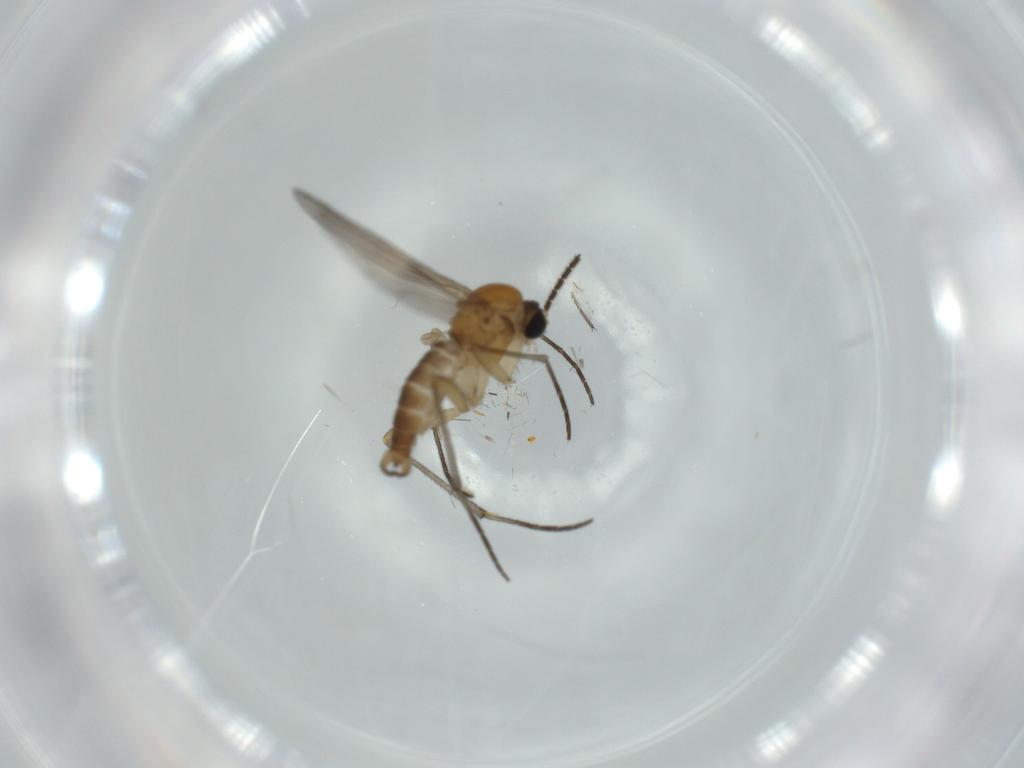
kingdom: Animalia
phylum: Arthropoda
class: Insecta
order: Diptera
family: Sciaridae
